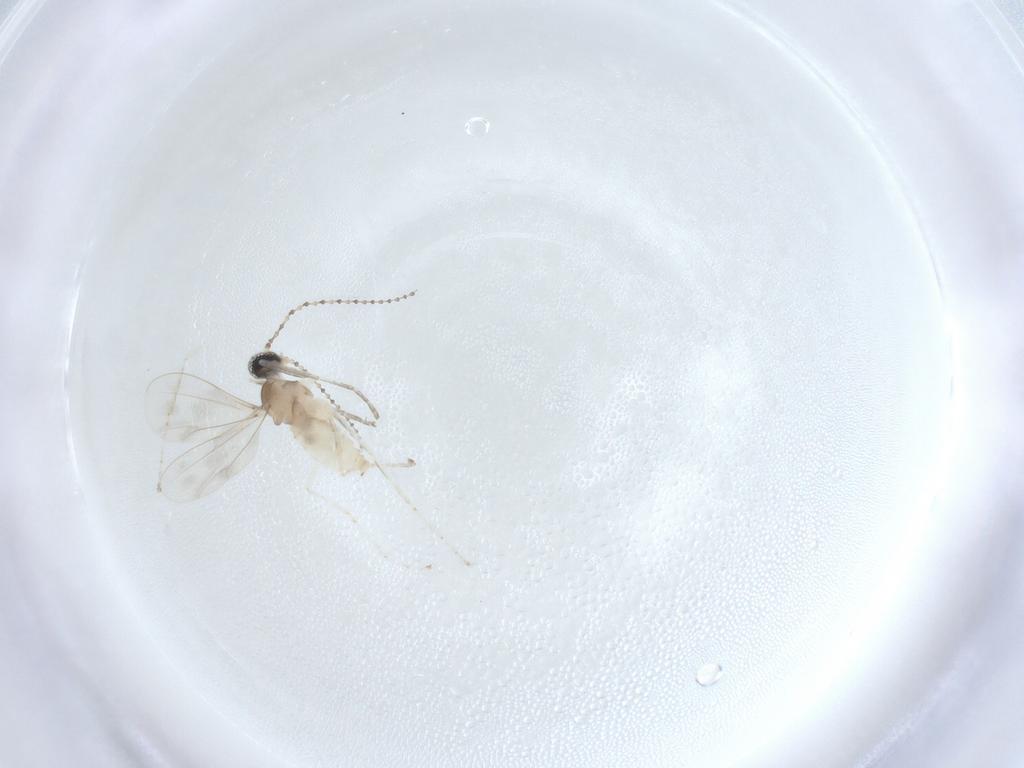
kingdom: Animalia
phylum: Arthropoda
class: Insecta
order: Diptera
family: Cecidomyiidae
